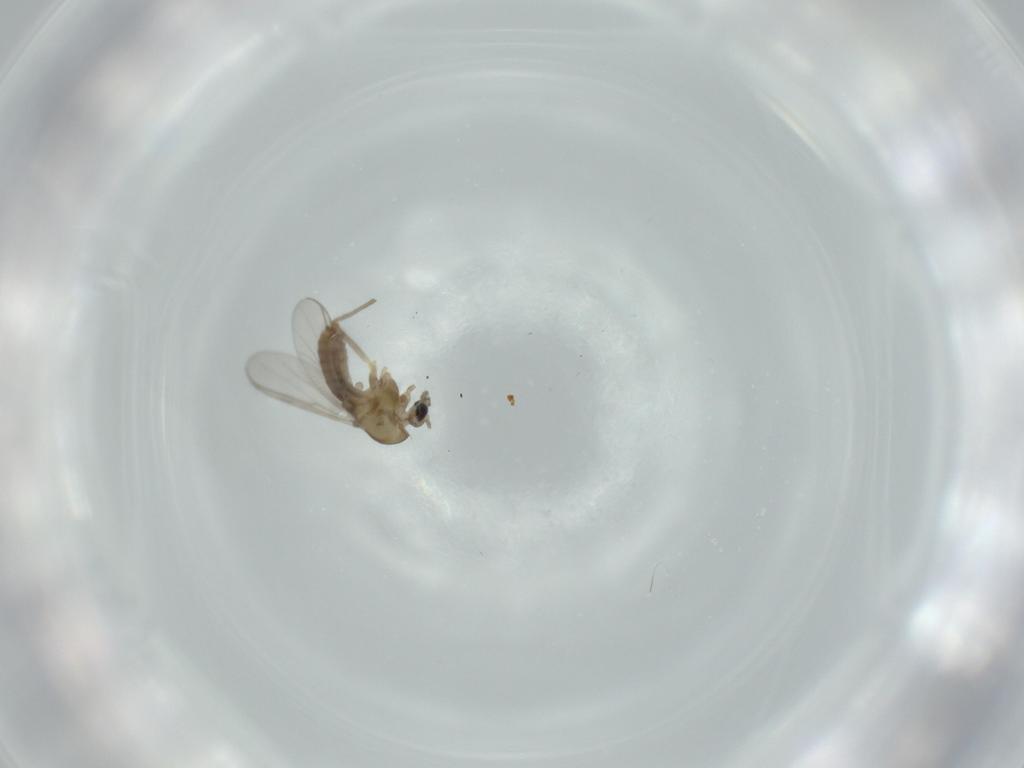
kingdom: Animalia
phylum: Arthropoda
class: Insecta
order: Diptera
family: Chironomidae
